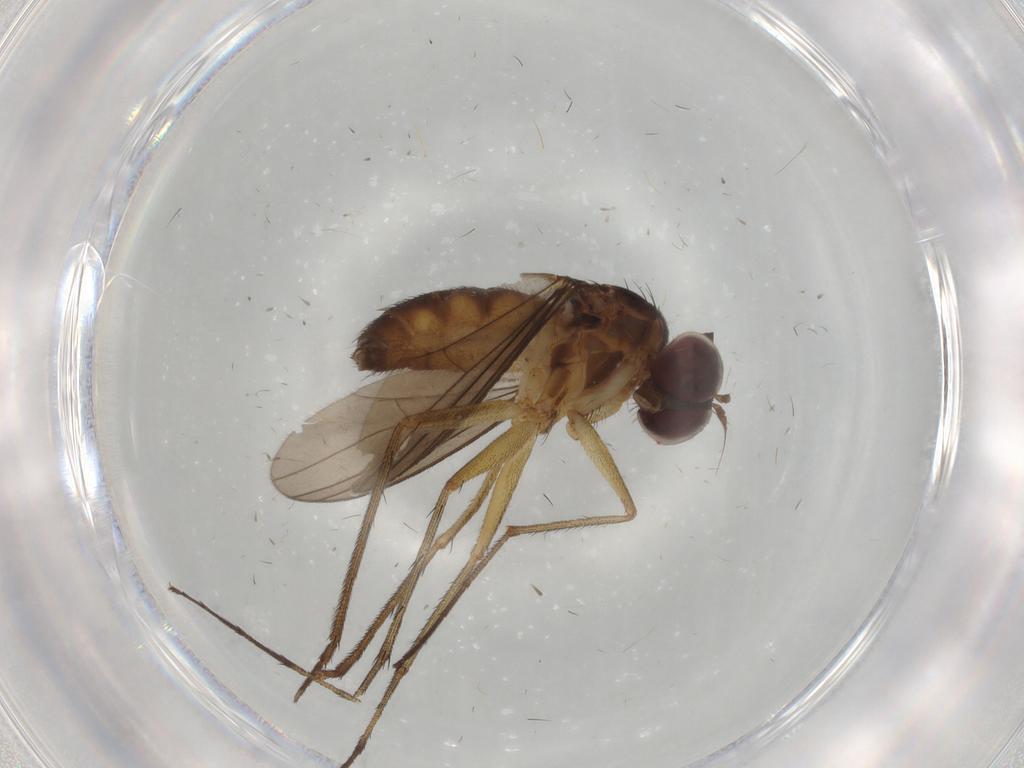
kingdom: Animalia
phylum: Arthropoda
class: Insecta
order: Diptera
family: Dolichopodidae
